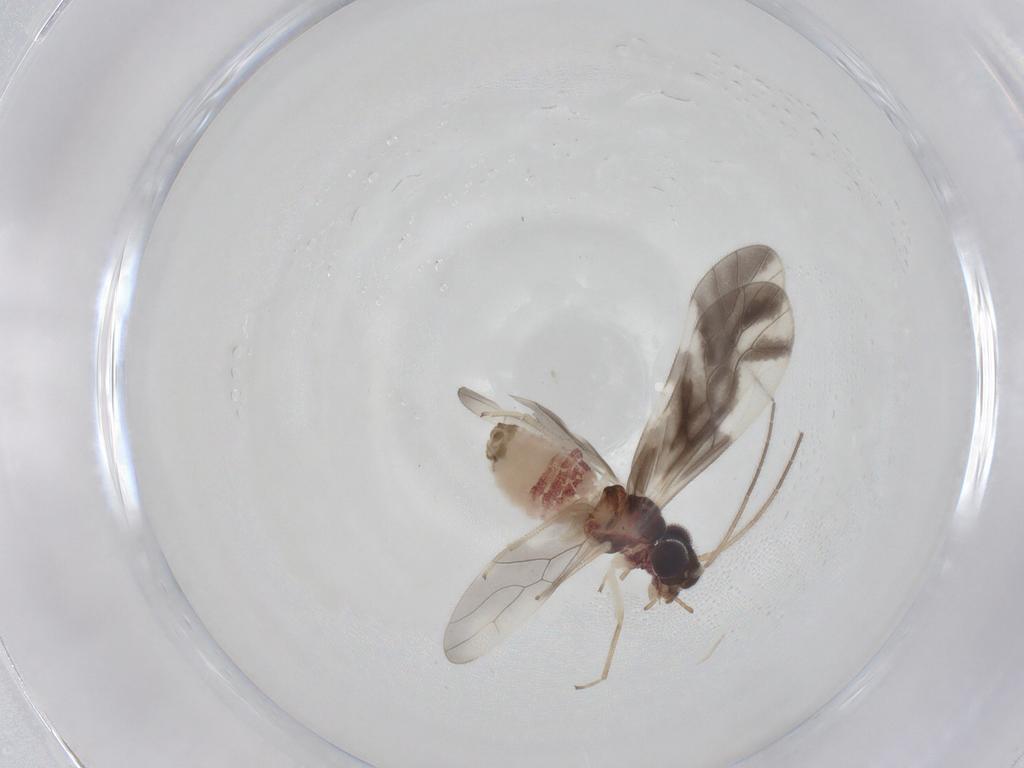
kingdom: Animalia
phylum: Arthropoda
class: Insecta
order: Psocodea
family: Caeciliusidae
